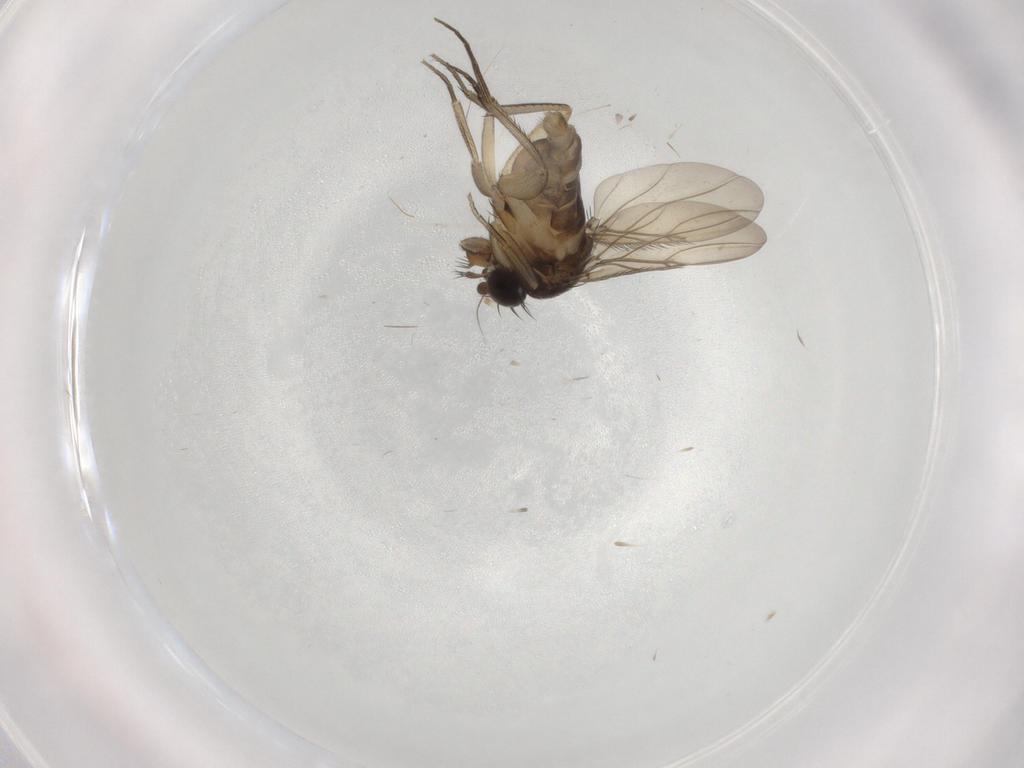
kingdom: Animalia
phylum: Arthropoda
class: Insecta
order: Diptera
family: Phoridae
